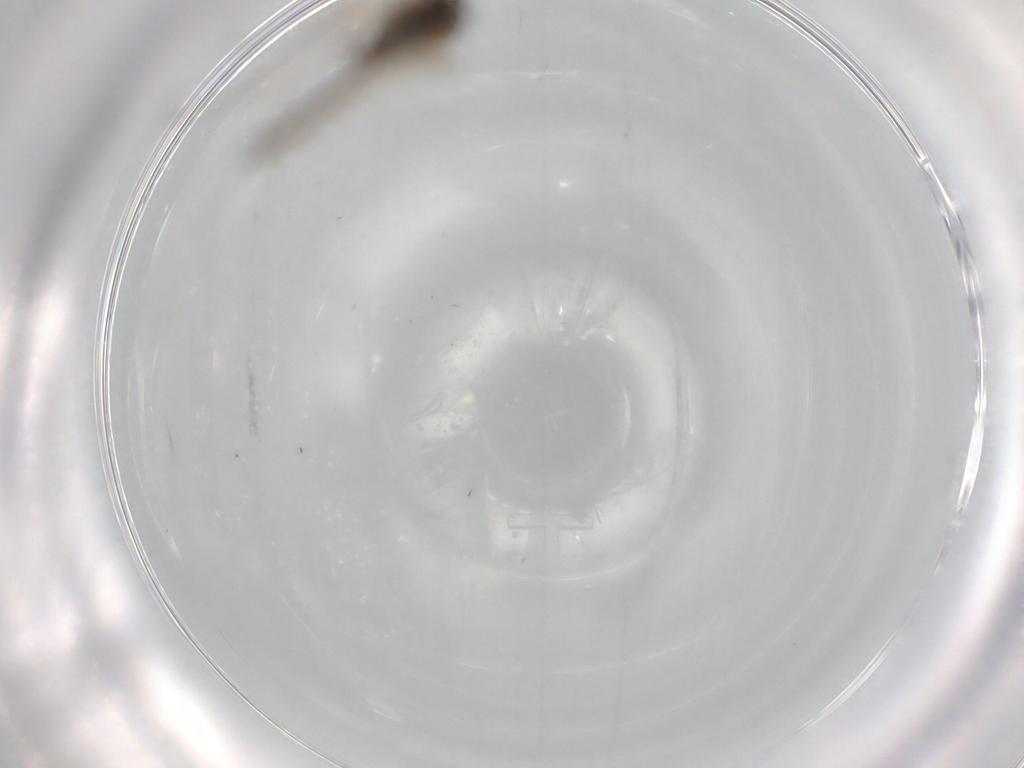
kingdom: Animalia
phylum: Arthropoda
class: Insecta
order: Diptera
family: Chironomidae
